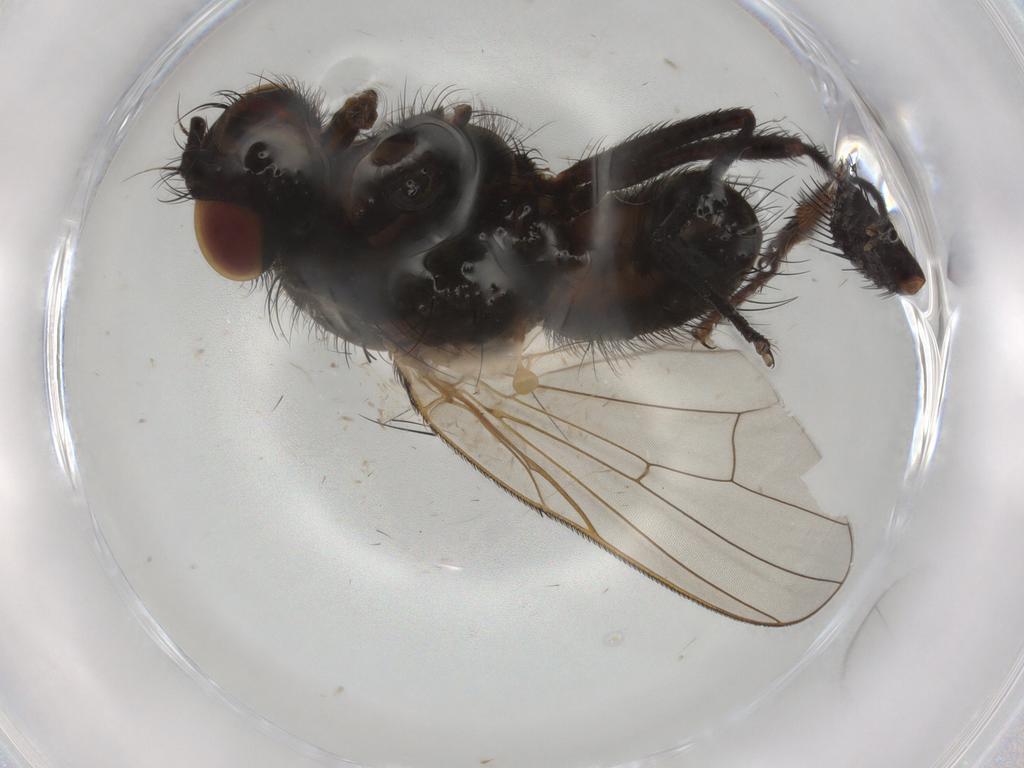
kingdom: Animalia
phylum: Arthropoda
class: Insecta
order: Diptera
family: Anthomyiidae
